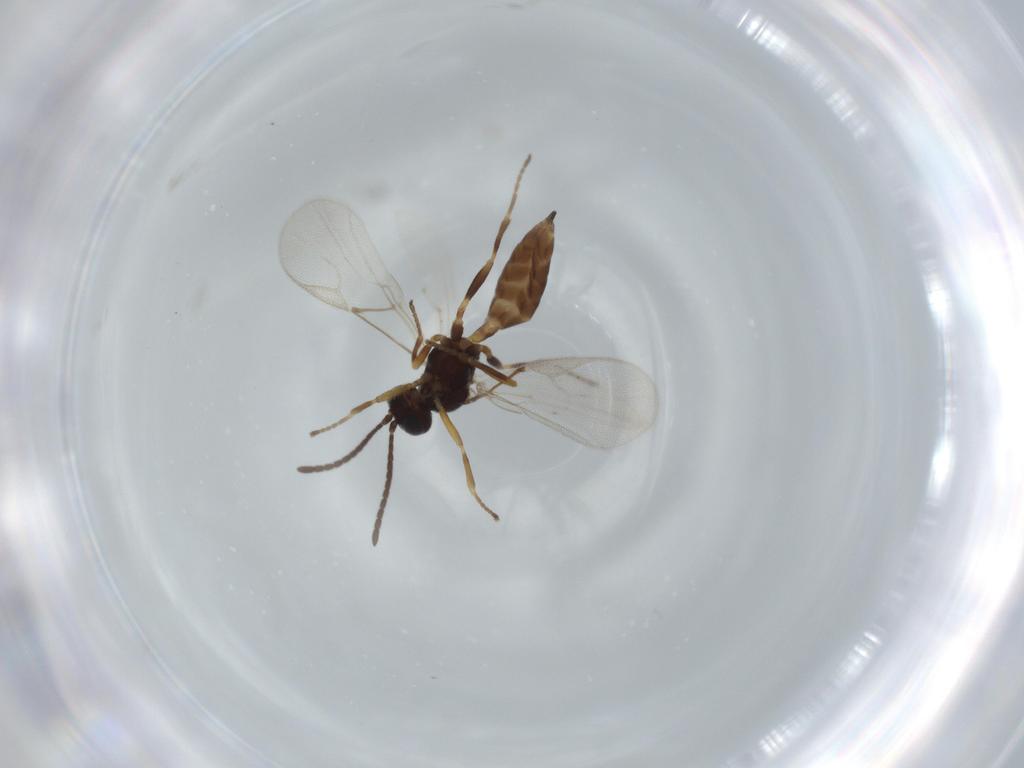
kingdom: Animalia
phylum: Arthropoda
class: Insecta
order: Hymenoptera
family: Braconidae
